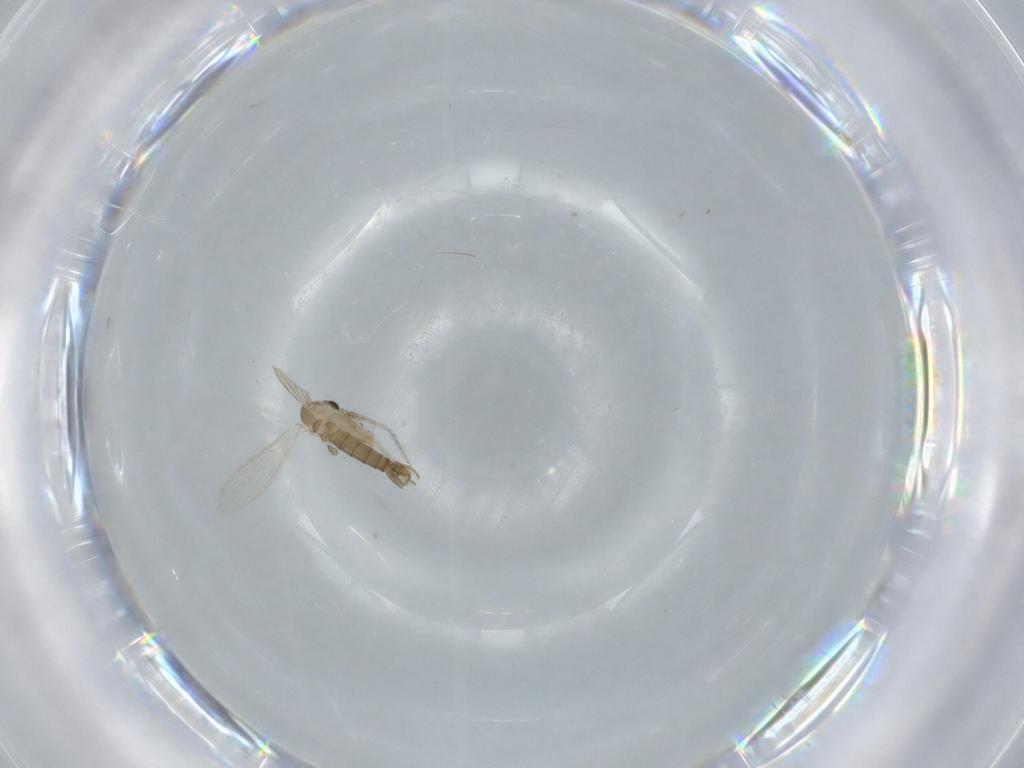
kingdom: Animalia
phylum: Arthropoda
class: Insecta
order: Diptera
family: Psychodidae
